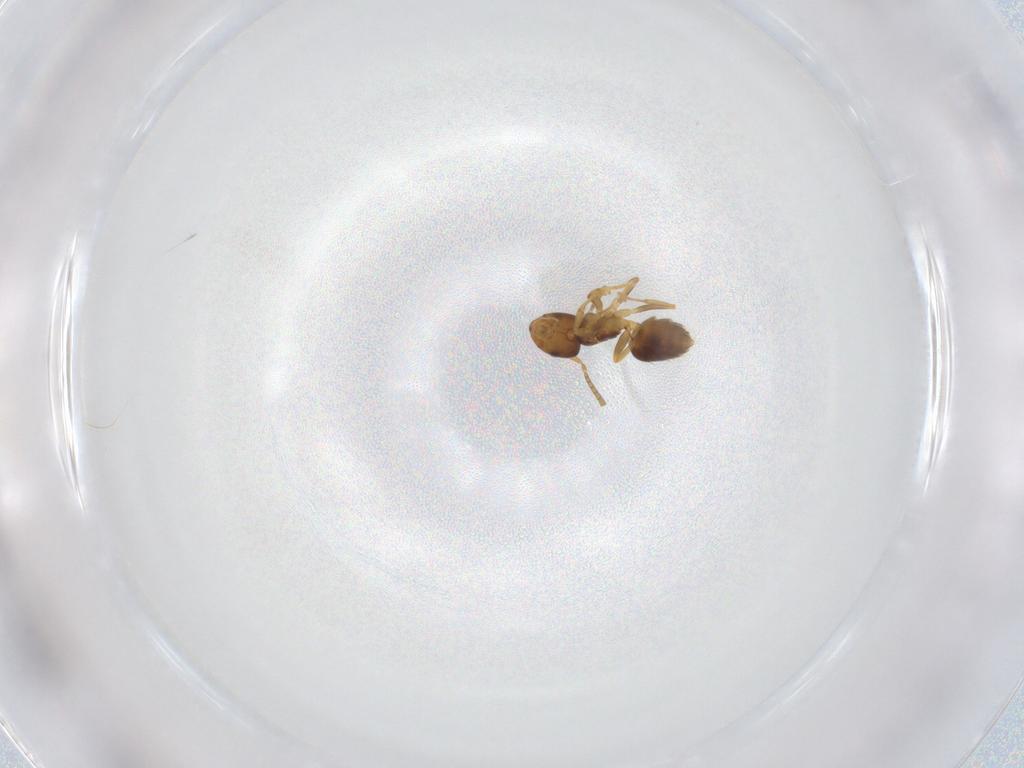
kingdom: Animalia
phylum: Arthropoda
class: Insecta
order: Hymenoptera
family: Formicidae
